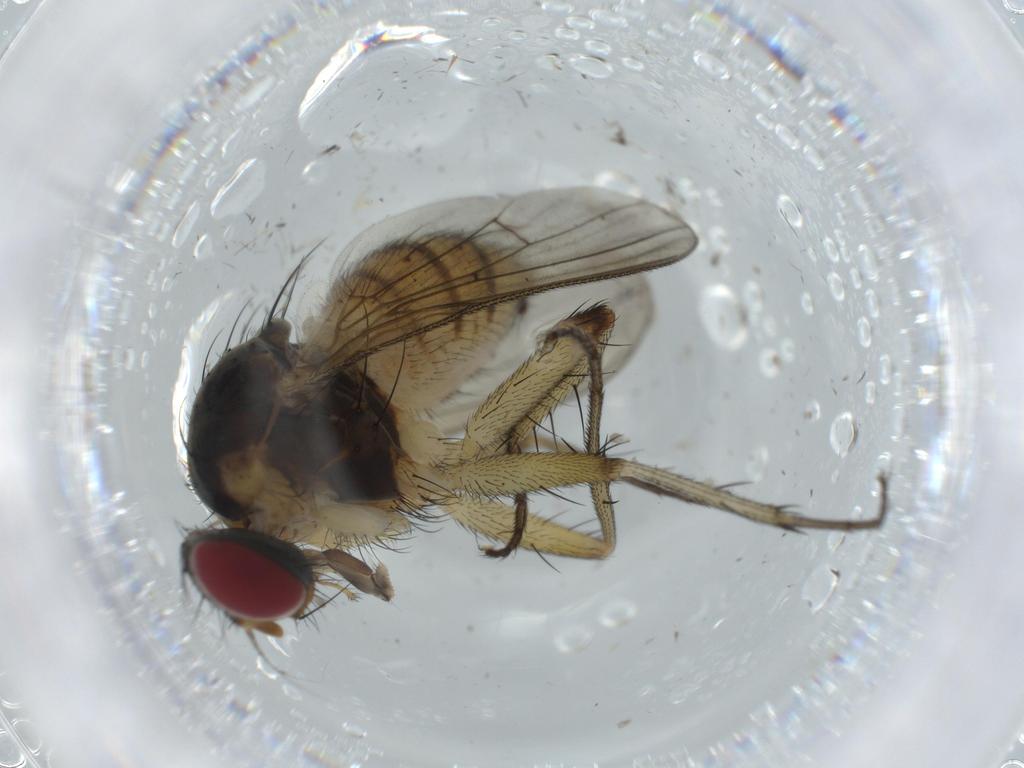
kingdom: Animalia
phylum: Arthropoda
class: Insecta
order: Diptera
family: Muscidae
